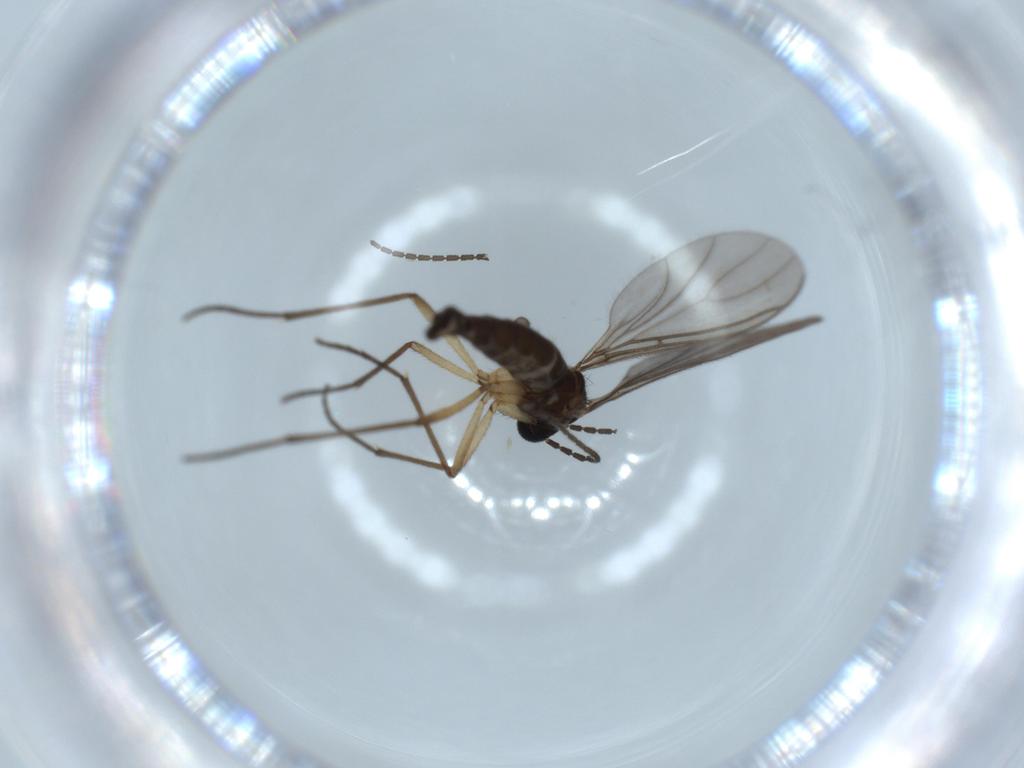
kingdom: Animalia
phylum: Arthropoda
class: Insecta
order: Diptera
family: Sciaridae
